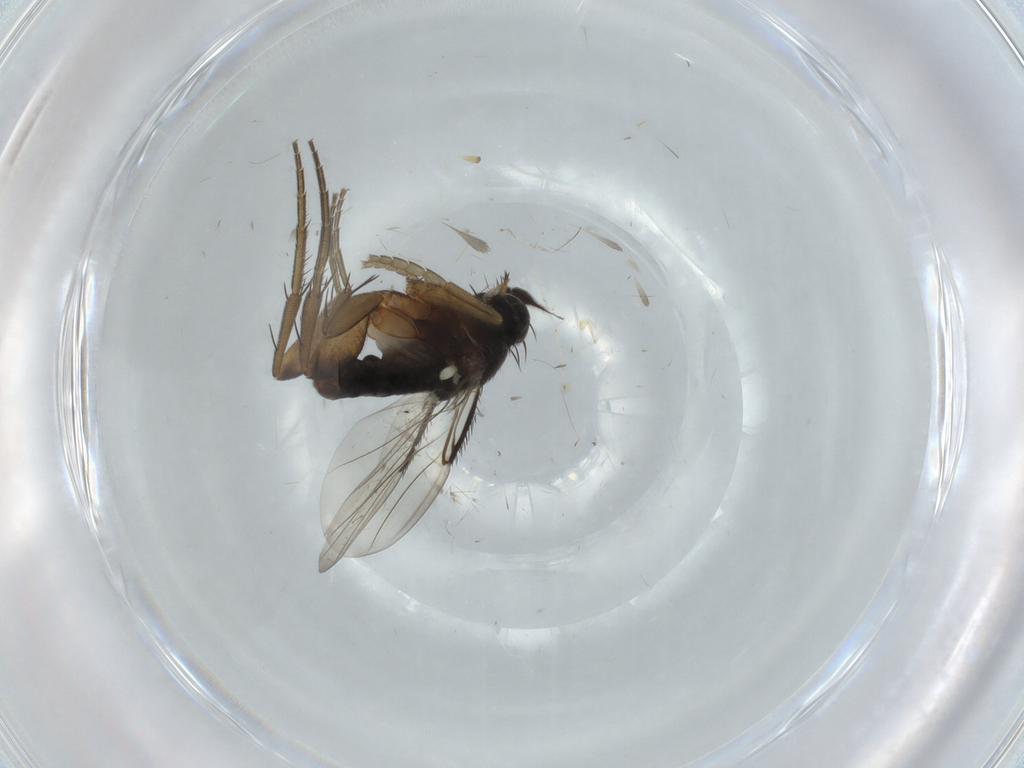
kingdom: Animalia
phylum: Arthropoda
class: Insecta
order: Diptera
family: Phoridae
